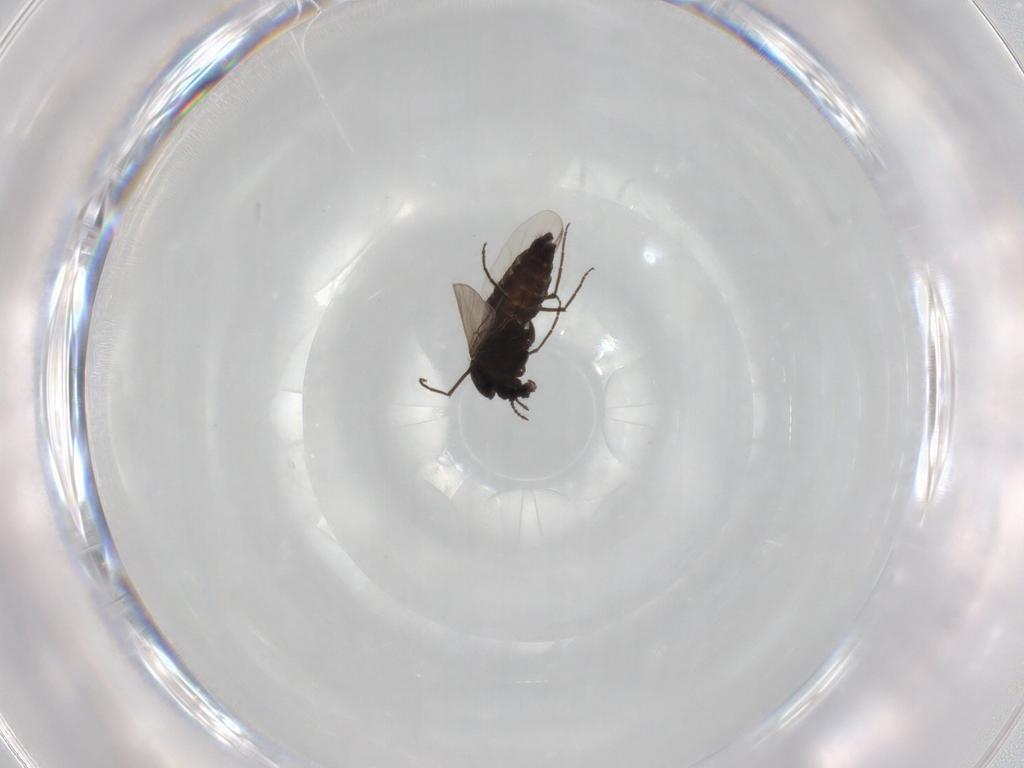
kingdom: Animalia
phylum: Arthropoda
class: Insecta
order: Diptera
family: Chironomidae
